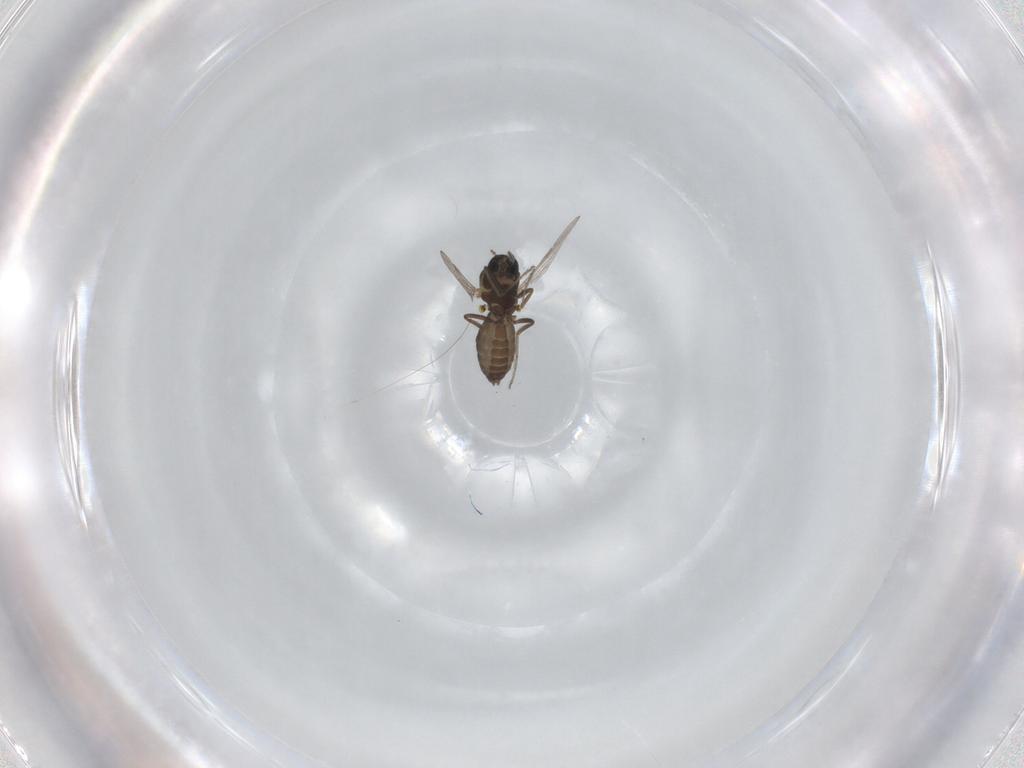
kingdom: Animalia
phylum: Arthropoda
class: Insecta
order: Diptera
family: Ceratopogonidae
